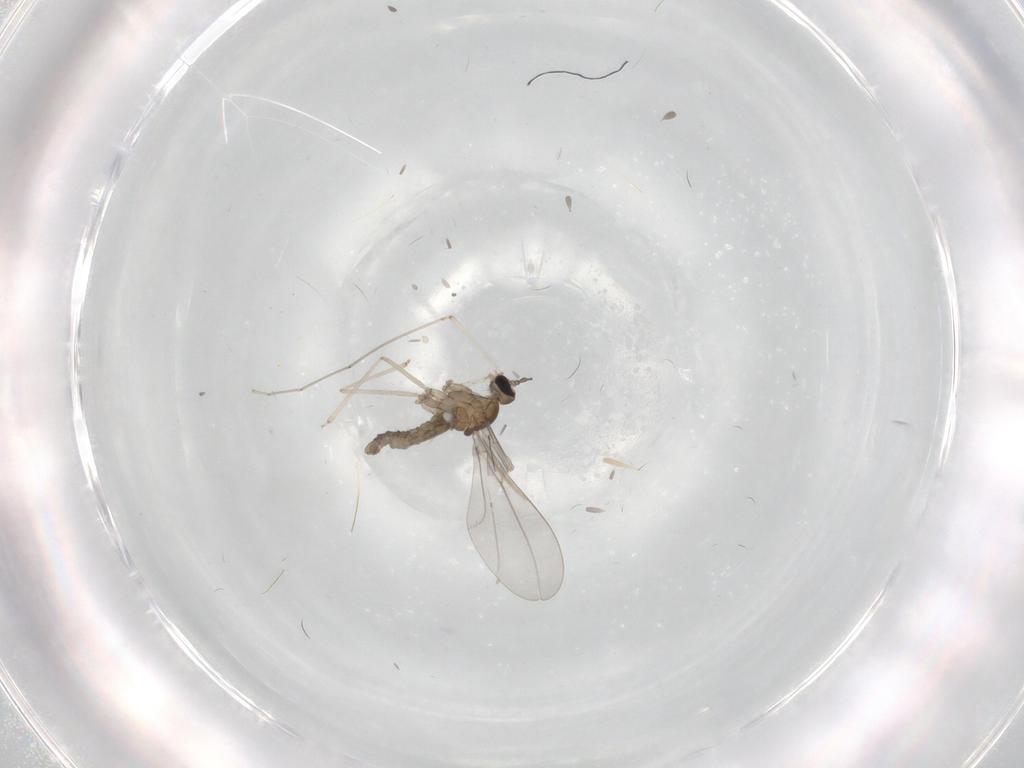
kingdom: Animalia
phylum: Arthropoda
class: Insecta
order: Diptera
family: Cecidomyiidae
